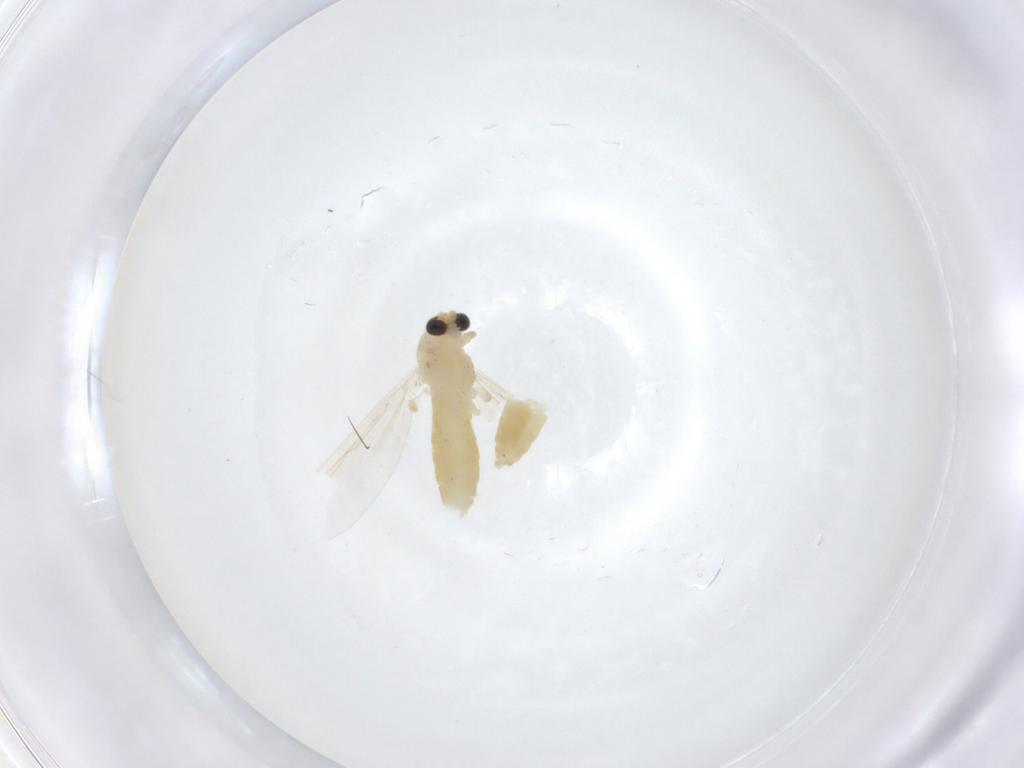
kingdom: Animalia
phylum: Arthropoda
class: Insecta
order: Diptera
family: Chironomidae
